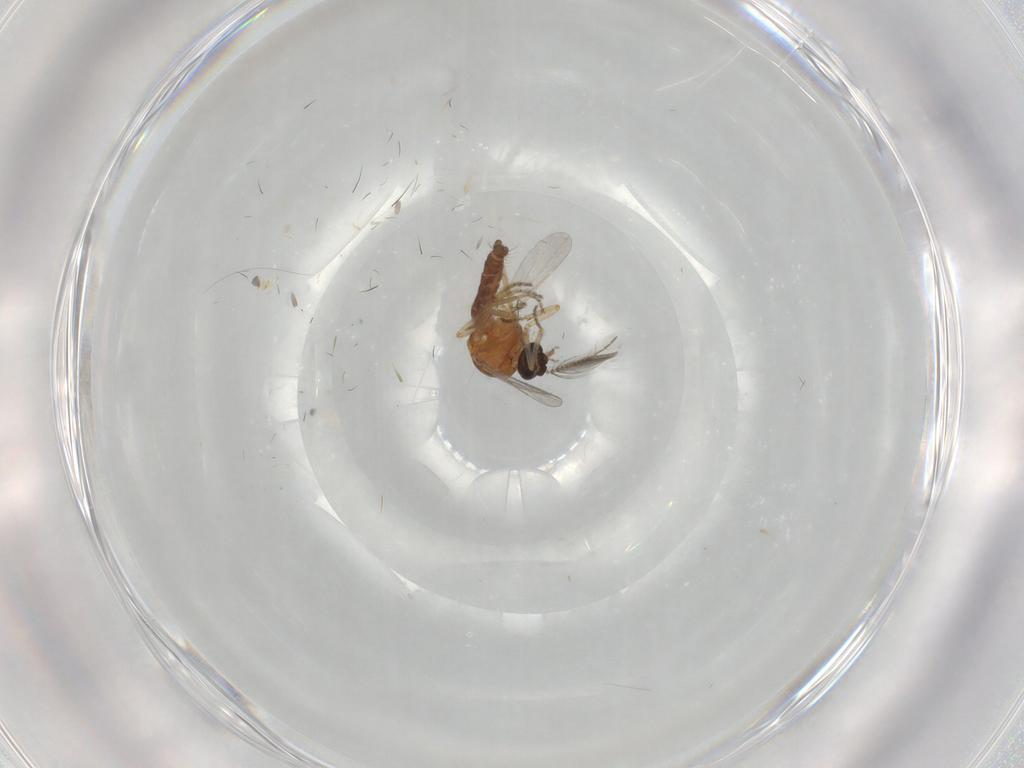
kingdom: Animalia
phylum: Arthropoda
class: Insecta
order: Diptera
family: Ceratopogonidae
